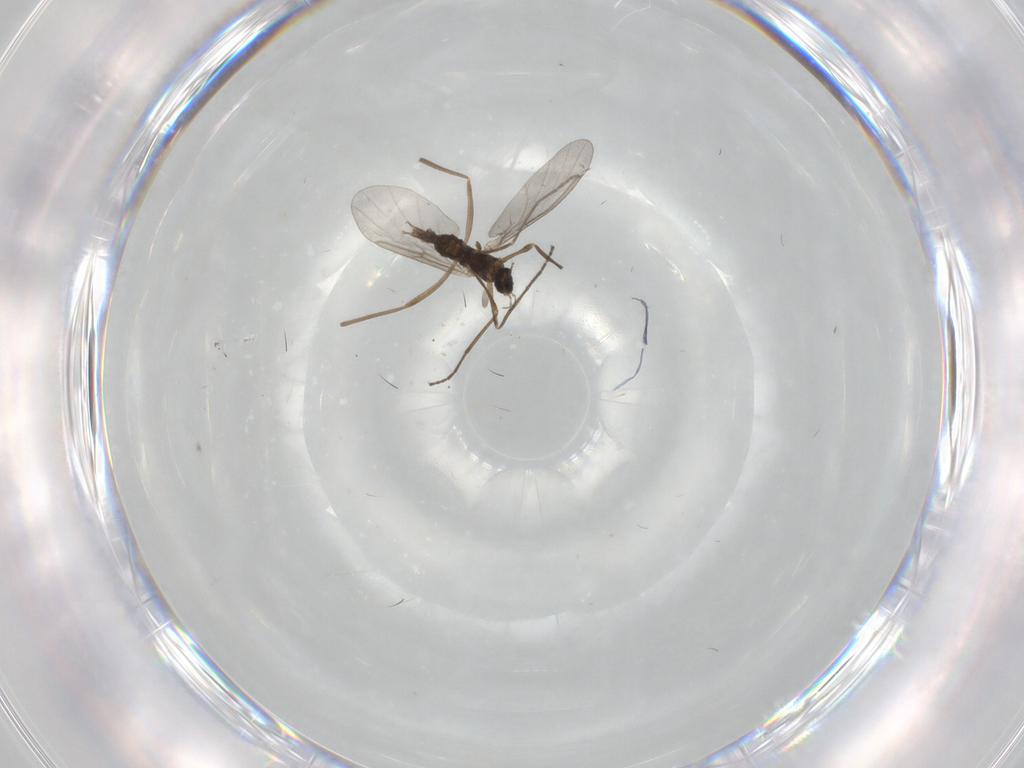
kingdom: Animalia
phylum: Arthropoda
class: Insecta
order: Diptera
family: Cecidomyiidae
